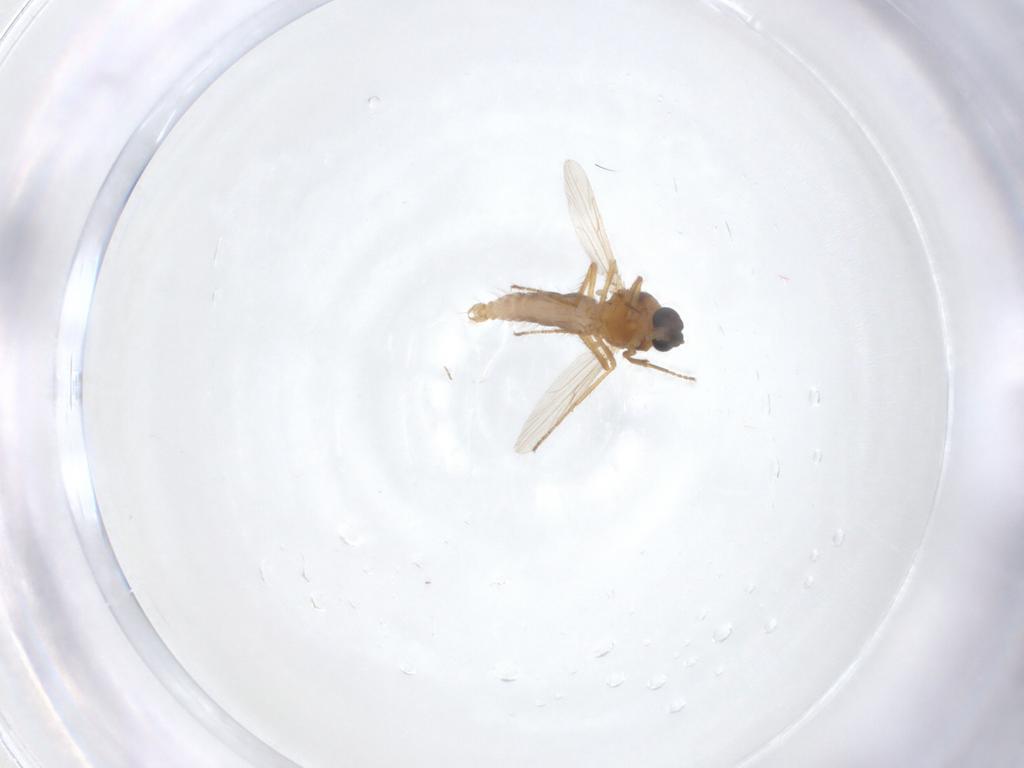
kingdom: Animalia
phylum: Arthropoda
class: Insecta
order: Diptera
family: Ceratopogonidae
